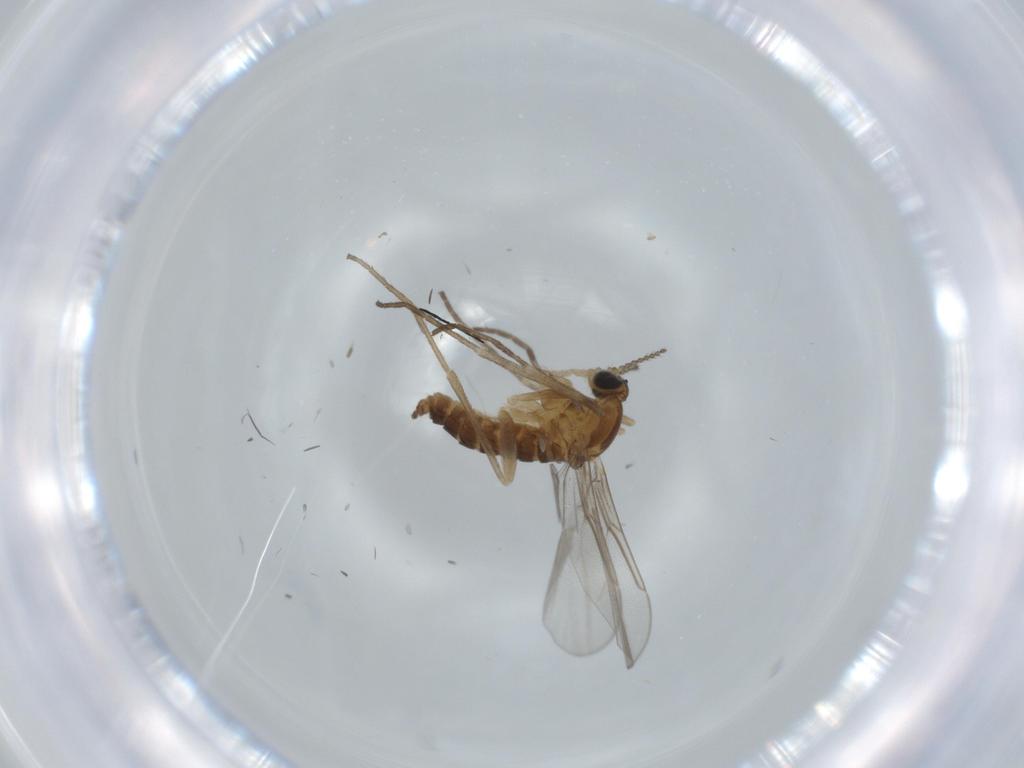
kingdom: Animalia
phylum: Arthropoda
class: Insecta
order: Diptera
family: Cecidomyiidae
